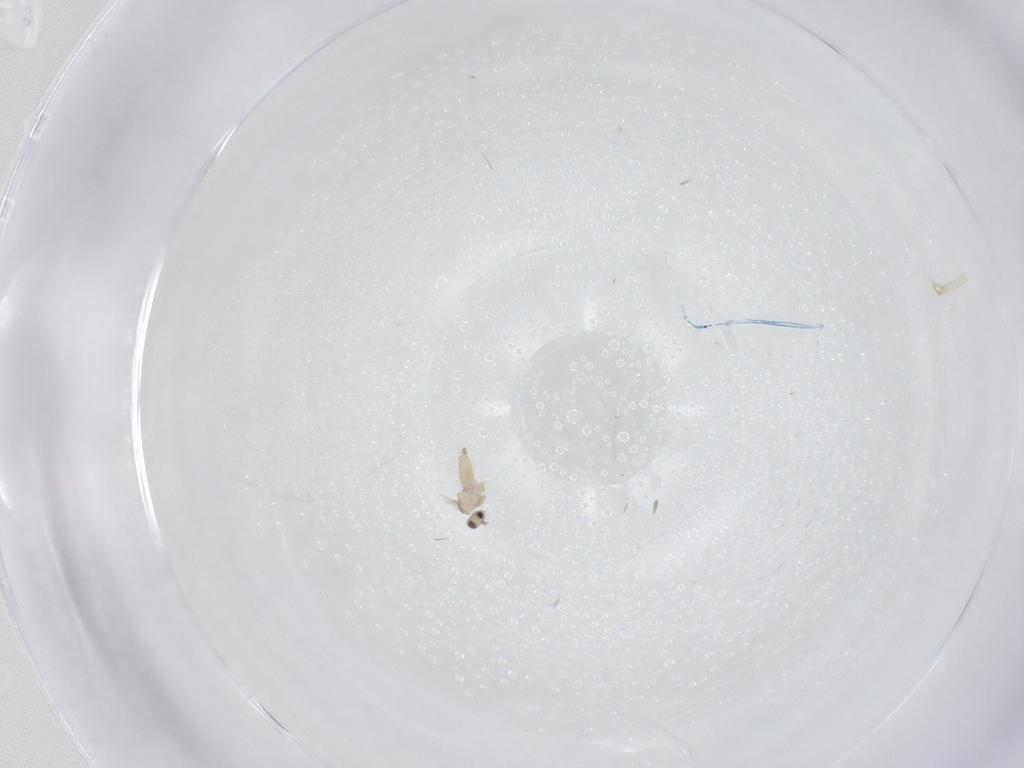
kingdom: Animalia
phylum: Arthropoda
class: Insecta
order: Diptera
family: Cecidomyiidae
